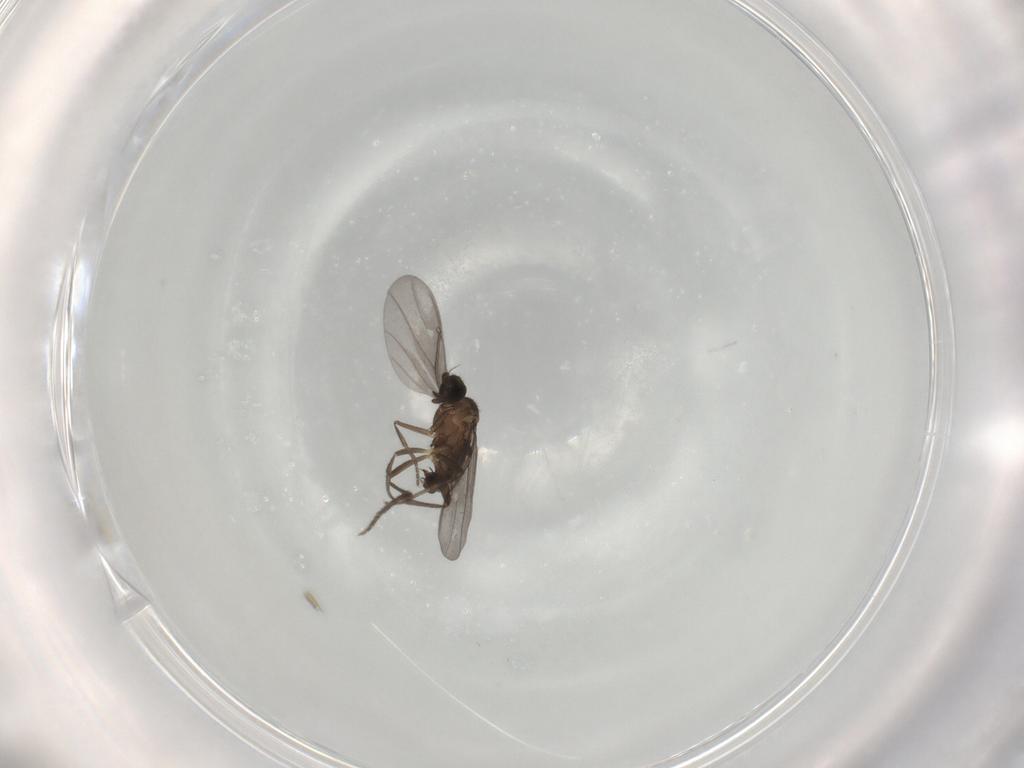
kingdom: Animalia
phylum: Arthropoda
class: Insecta
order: Diptera
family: Phoridae
